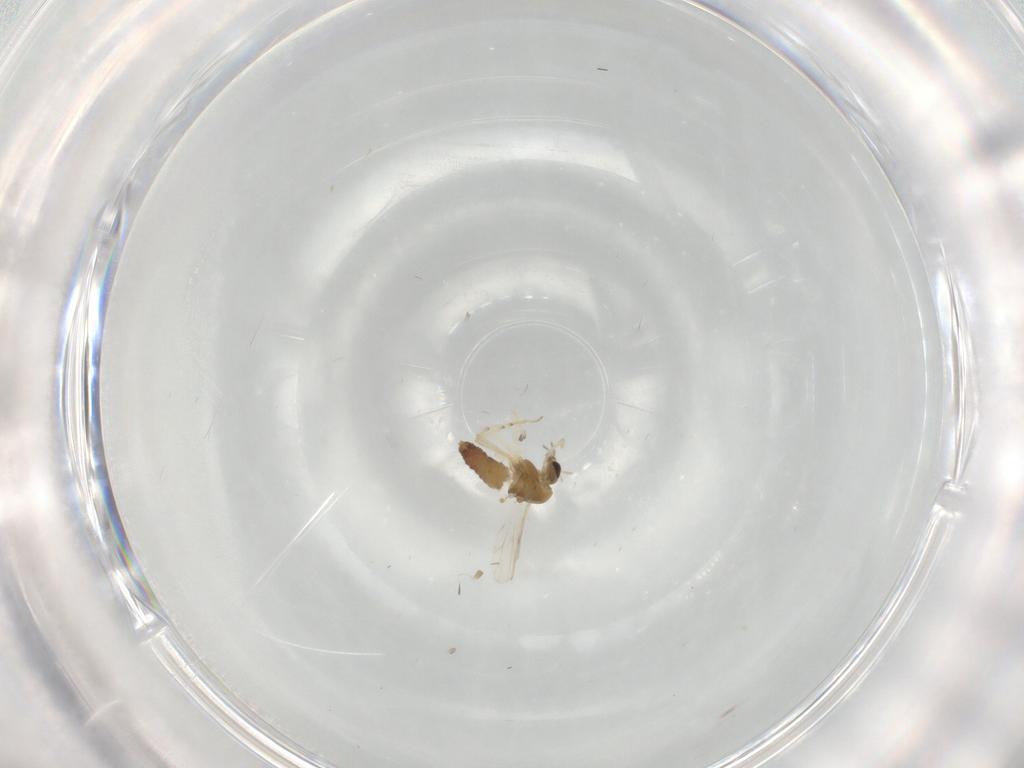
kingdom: Animalia
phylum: Arthropoda
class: Insecta
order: Diptera
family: Chironomidae
